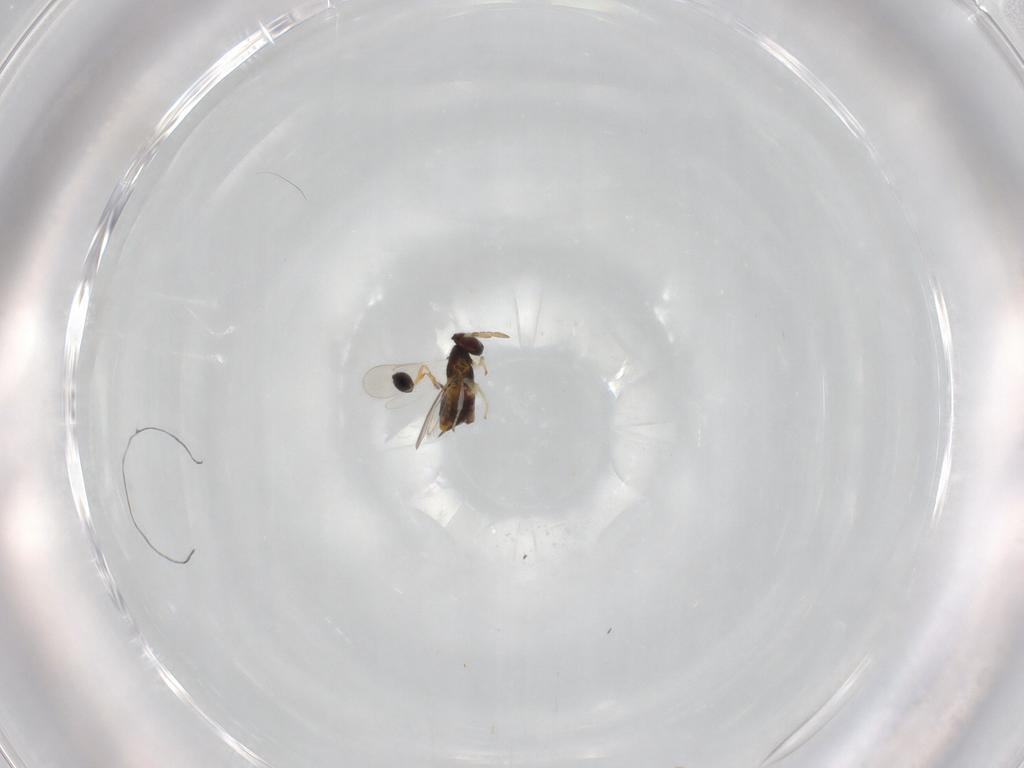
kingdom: Animalia
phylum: Arthropoda
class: Insecta
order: Hymenoptera
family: Platygastridae
